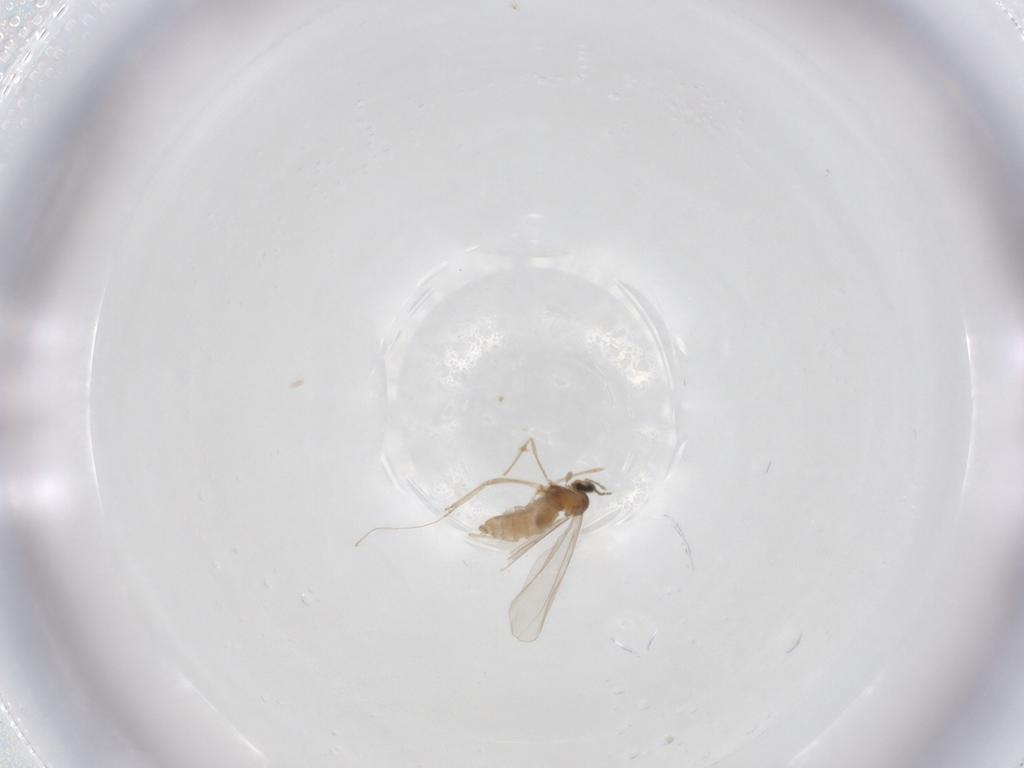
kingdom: Animalia
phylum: Arthropoda
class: Insecta
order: Diptera
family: Cecidomyiidae
